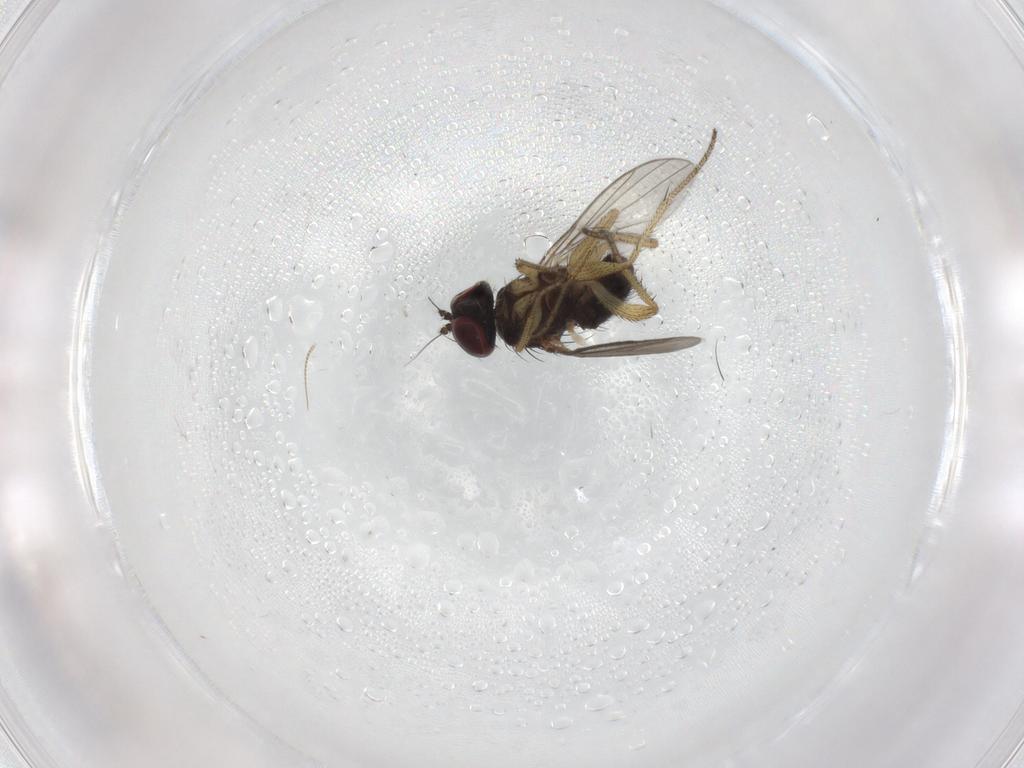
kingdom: Animalia
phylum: Arthropoda
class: Insecta
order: Diptera
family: Dolichopodidae
